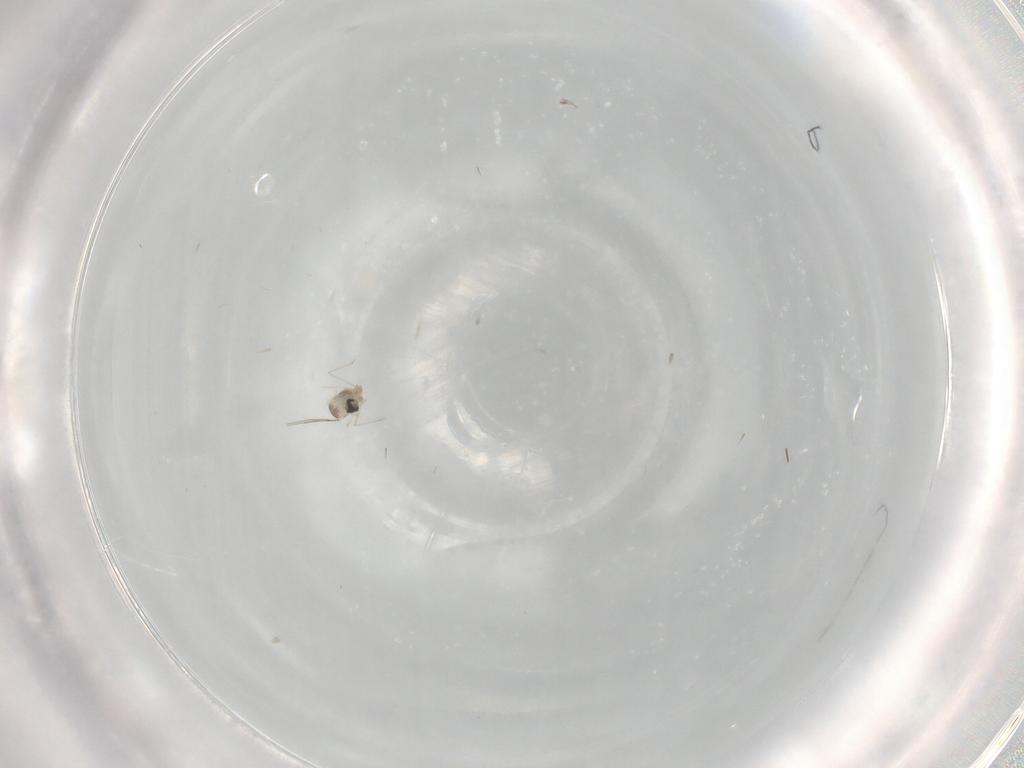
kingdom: Animalia
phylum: Arthropoda
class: Insecta
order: Diptera
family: Cecidomyiidae
